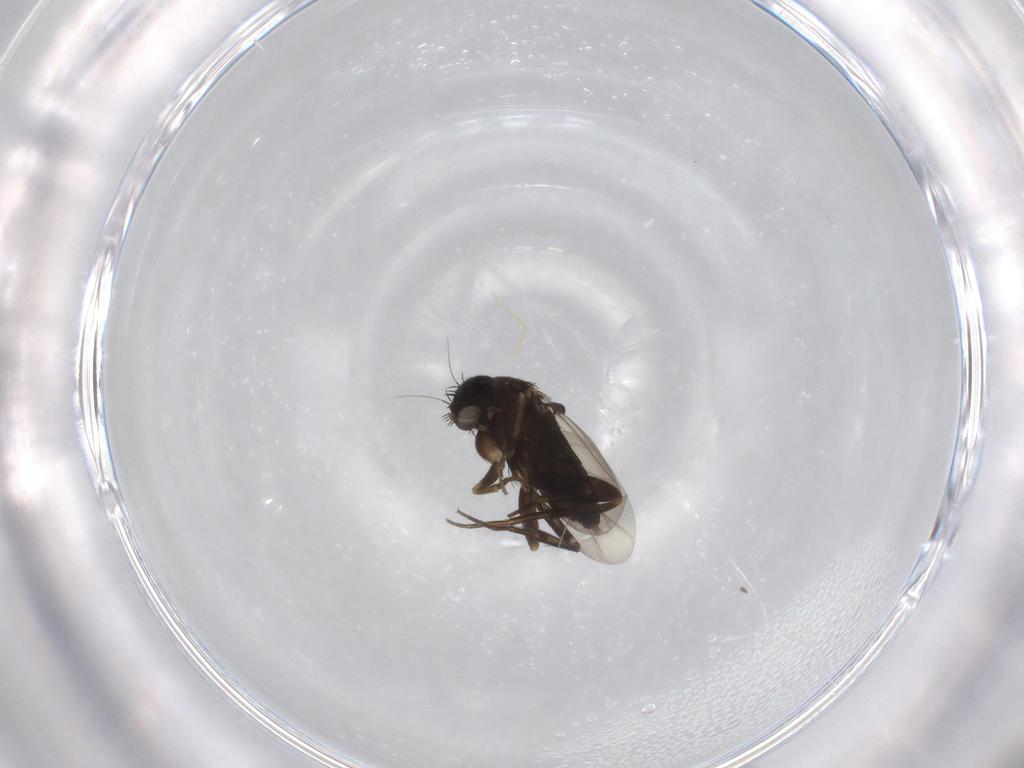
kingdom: Animalia
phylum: Arthropoda
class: Insecta
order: Diptera
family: Phoridae
